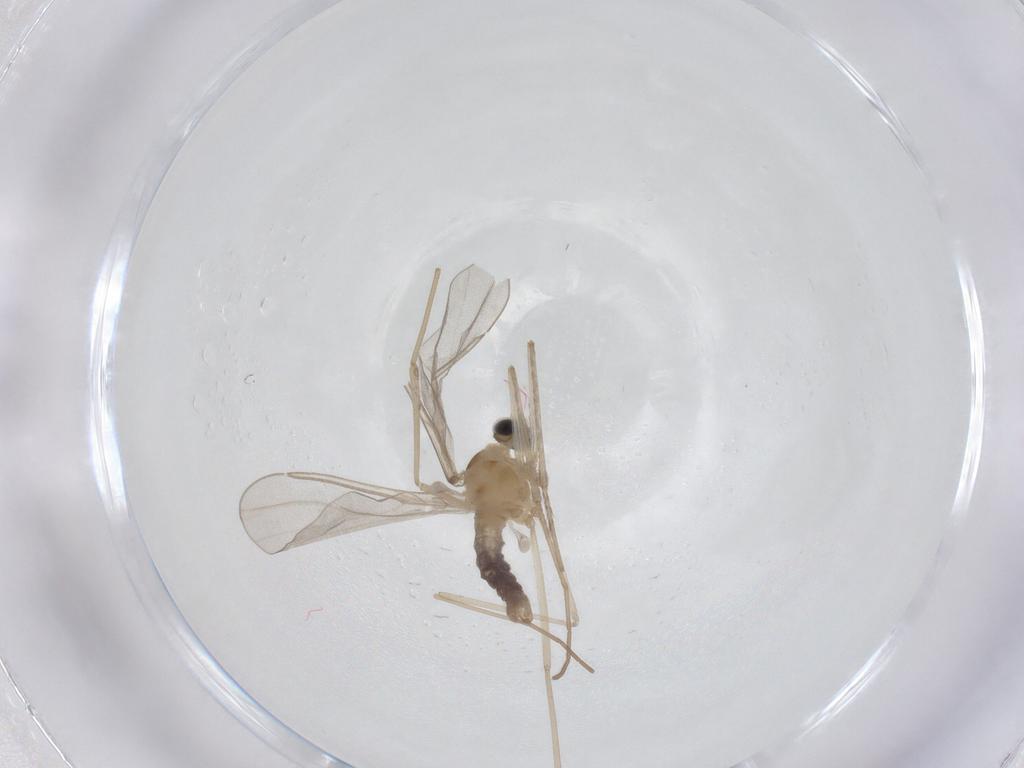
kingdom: Animalia
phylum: Arthropoda
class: Insecta
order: Diptera
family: Cecidomyiidae
